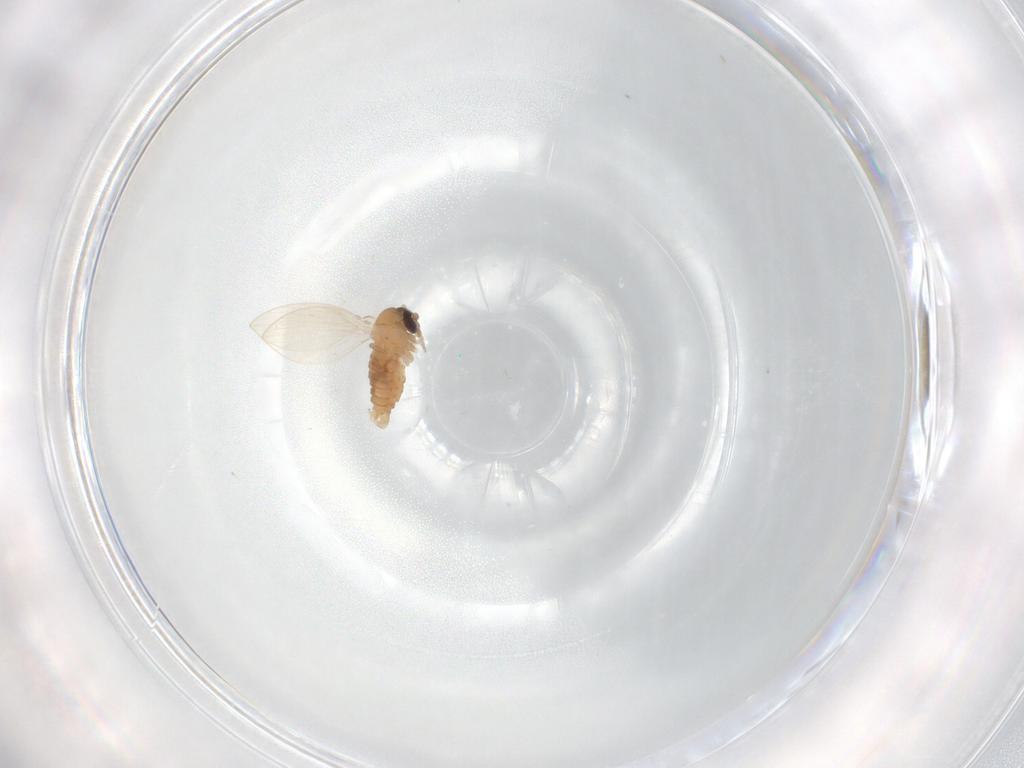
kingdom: Animalia
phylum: Arthropoda
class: Insecta
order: Diptera
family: Psychodidae
